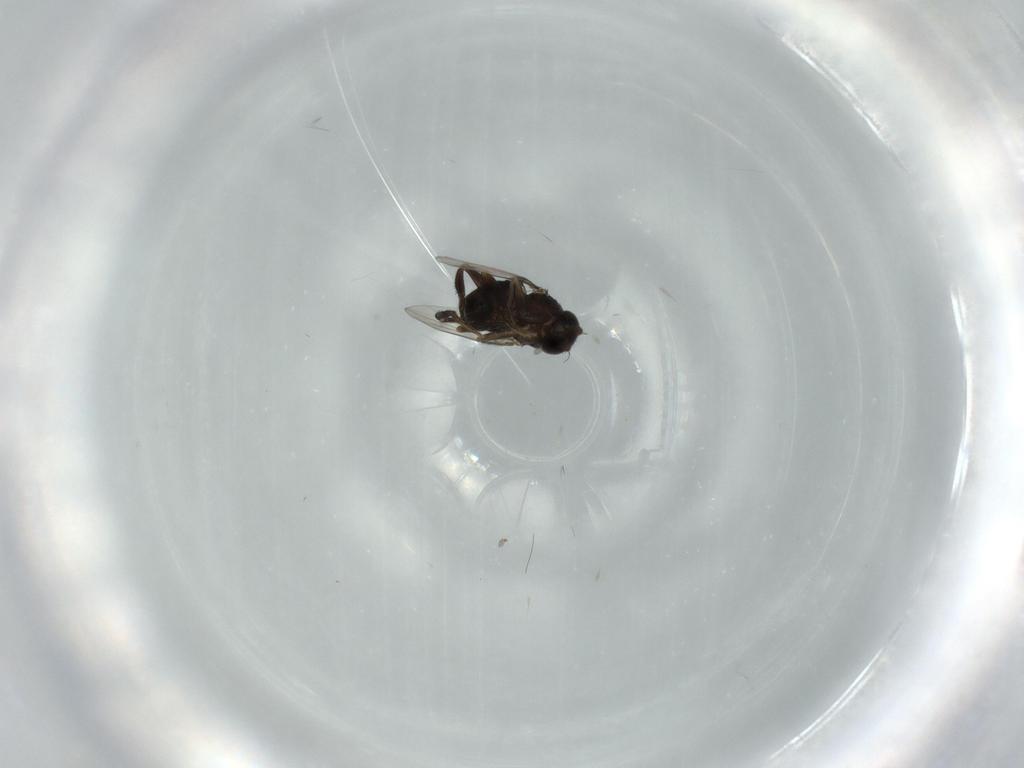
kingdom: Animalia
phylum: Arthropoda
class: Insecta
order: Diptera
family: Phoridae
